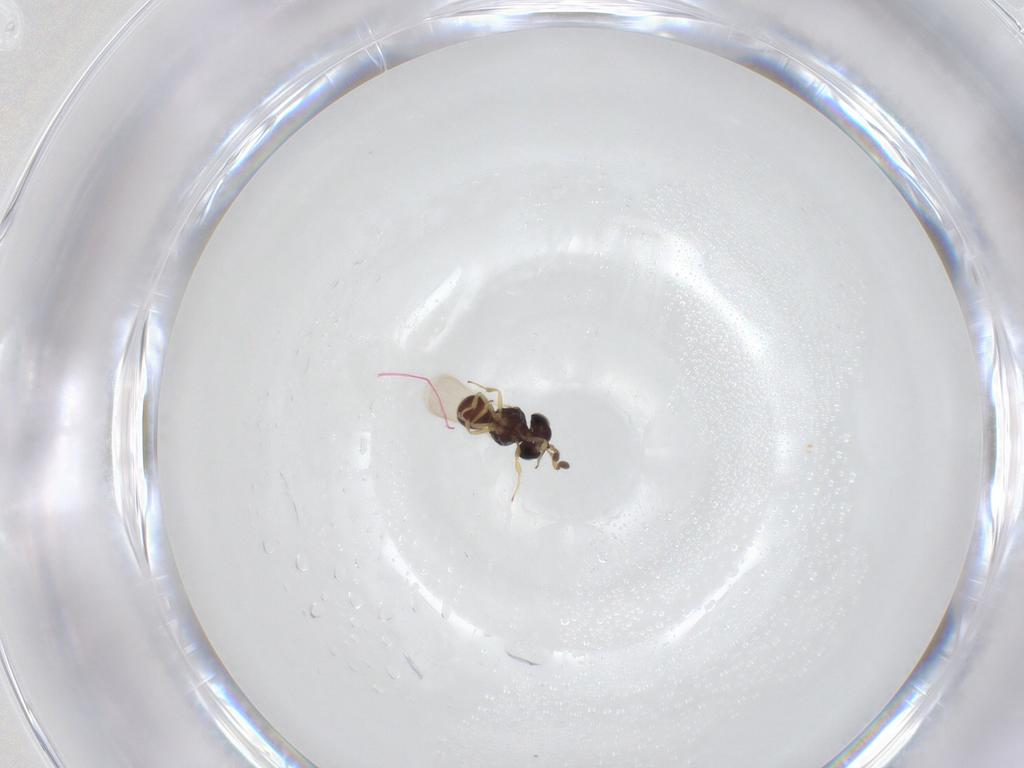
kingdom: Animalia
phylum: Arthropoda
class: Insecta
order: Hymenoptera
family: Scelionidae
